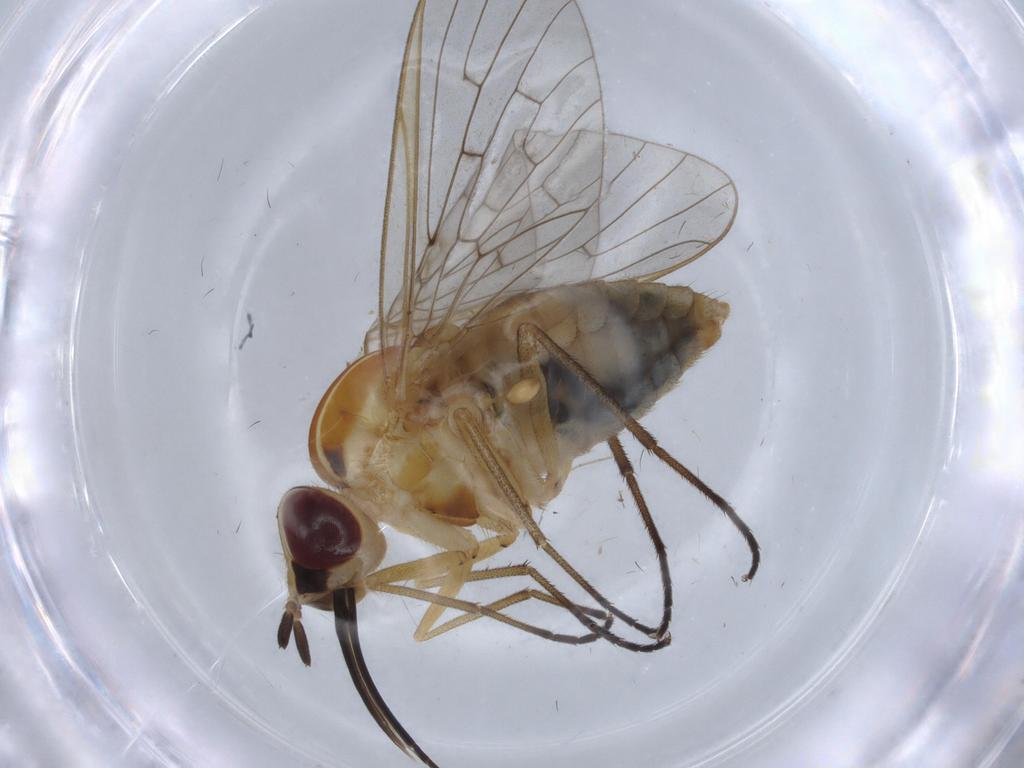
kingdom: Animalia
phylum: Arthropoda
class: Insecta
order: Diptera
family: Bombyliidae
